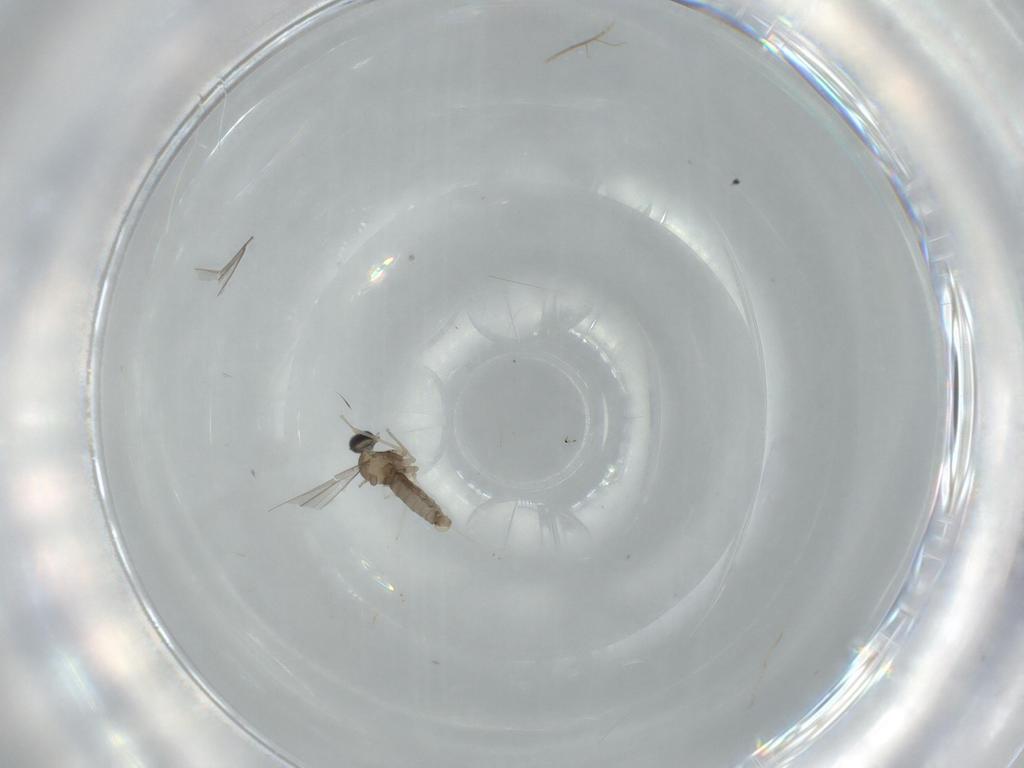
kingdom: Animalia
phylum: Arthropoda
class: Insecta
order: Diptera
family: Cecidomyiidae
